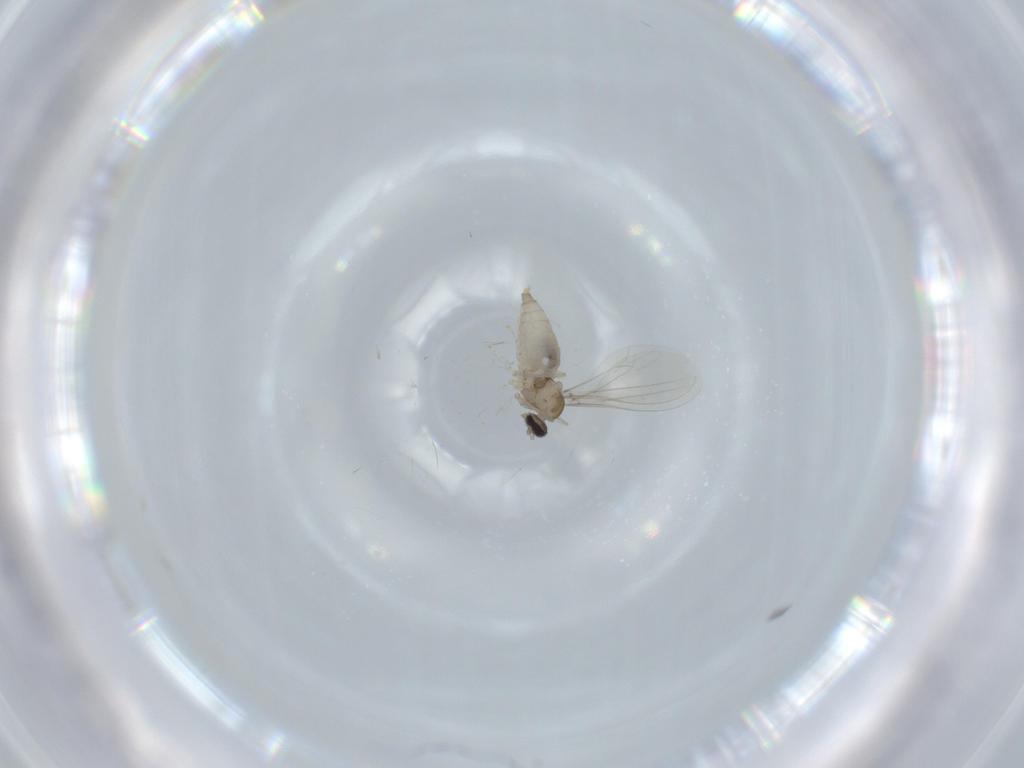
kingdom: Animalia
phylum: Arthropoda
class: Insecta
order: Diptera
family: Cecidomyiidae
